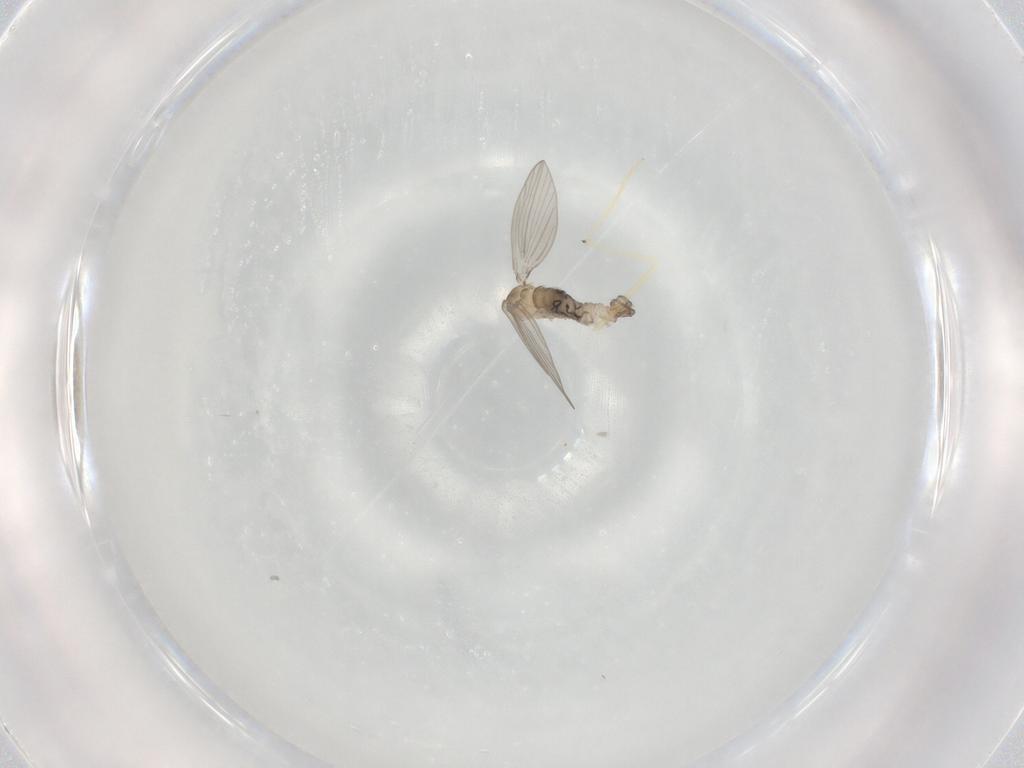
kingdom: Animalia
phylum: Arthropoda
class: Insecta
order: Diptera
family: Psychodidae
